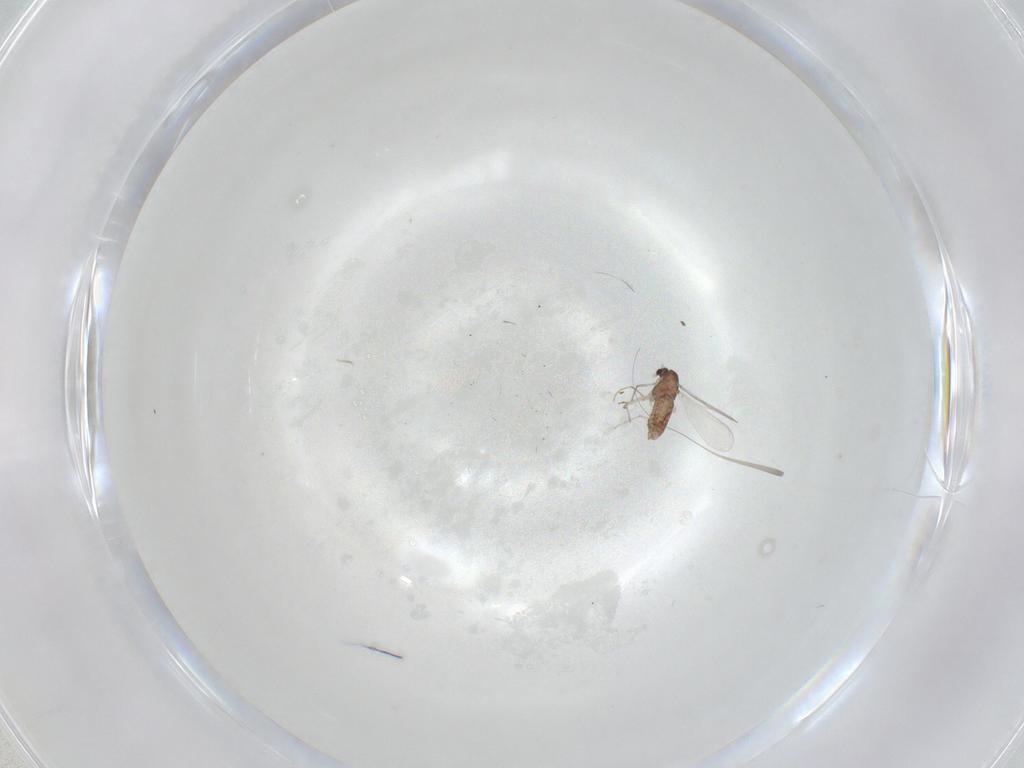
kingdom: Animalia
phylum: Arthropoda
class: Insecta
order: Diptera
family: Chironomidae
